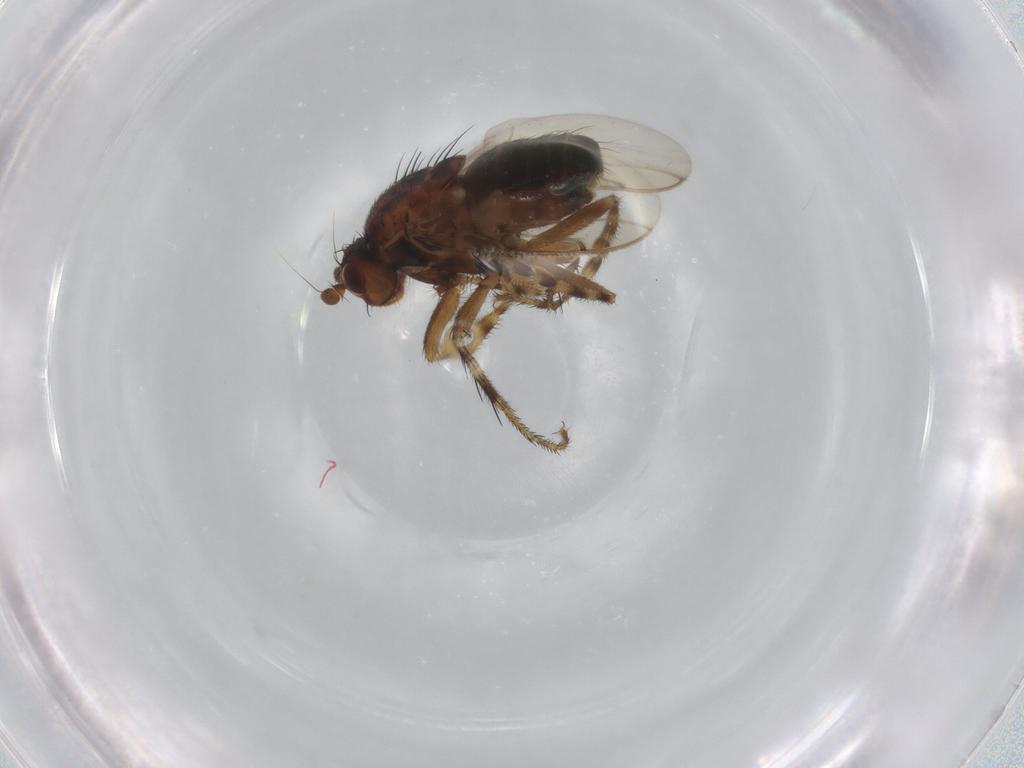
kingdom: Animalia
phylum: Arthropoda
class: Insecta
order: Diptera
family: Sphaeroceridae
